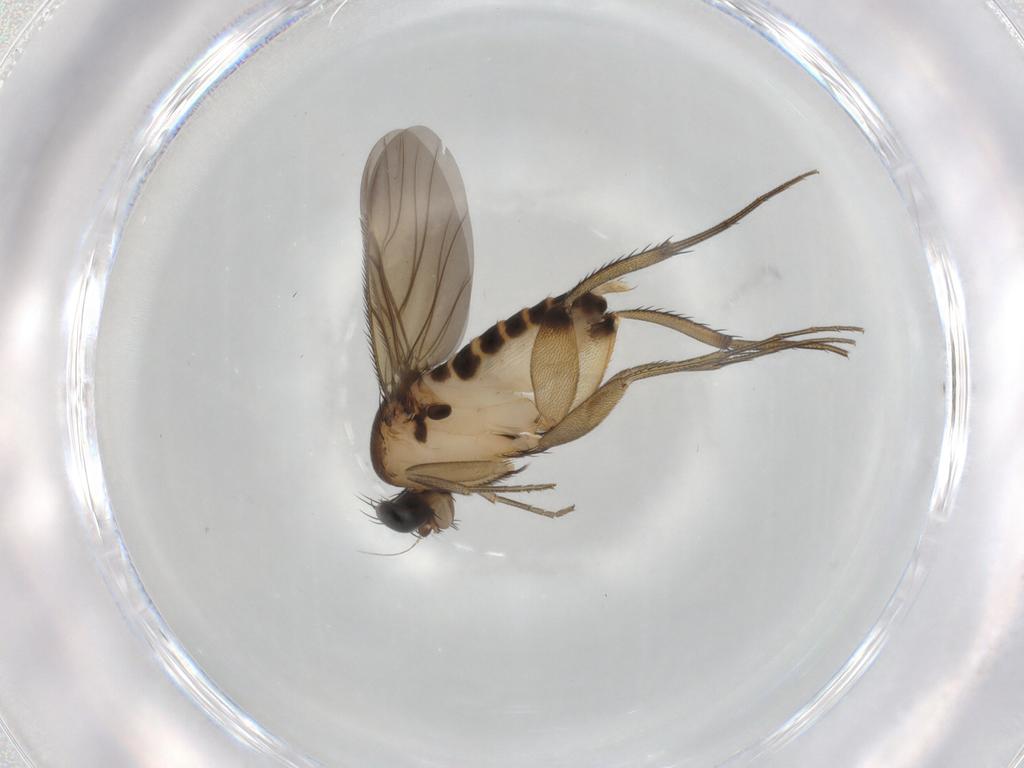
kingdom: Animalia
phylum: Arthropoda
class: Insecta
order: Diptera
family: Phoridae
